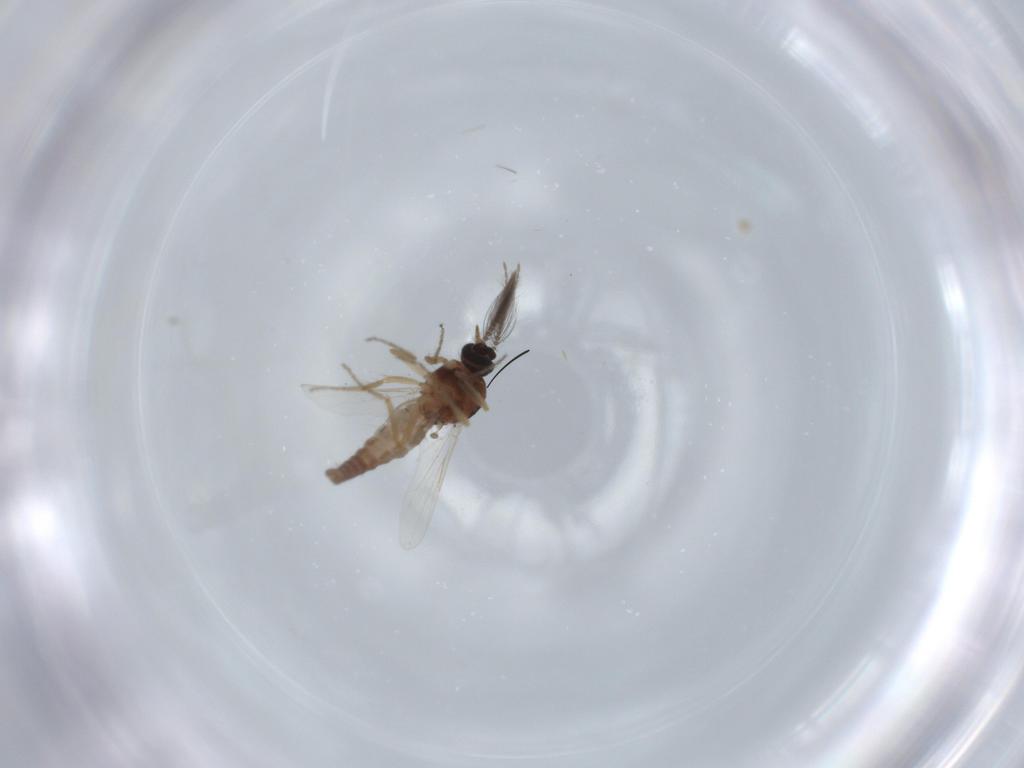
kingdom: Animalia
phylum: Arthropoda
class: Insecta
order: Diptera
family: Ceratopogonidae
